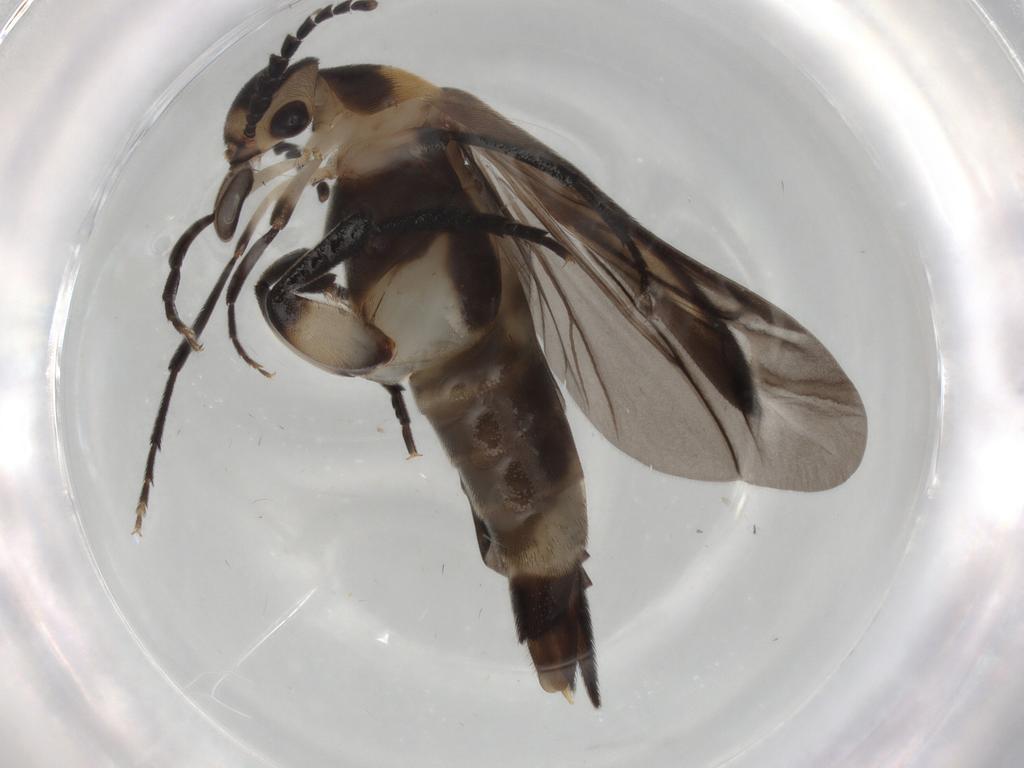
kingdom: Animalia
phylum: Arthropoda
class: Insecta
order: Coleoptera
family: Mordellidae
